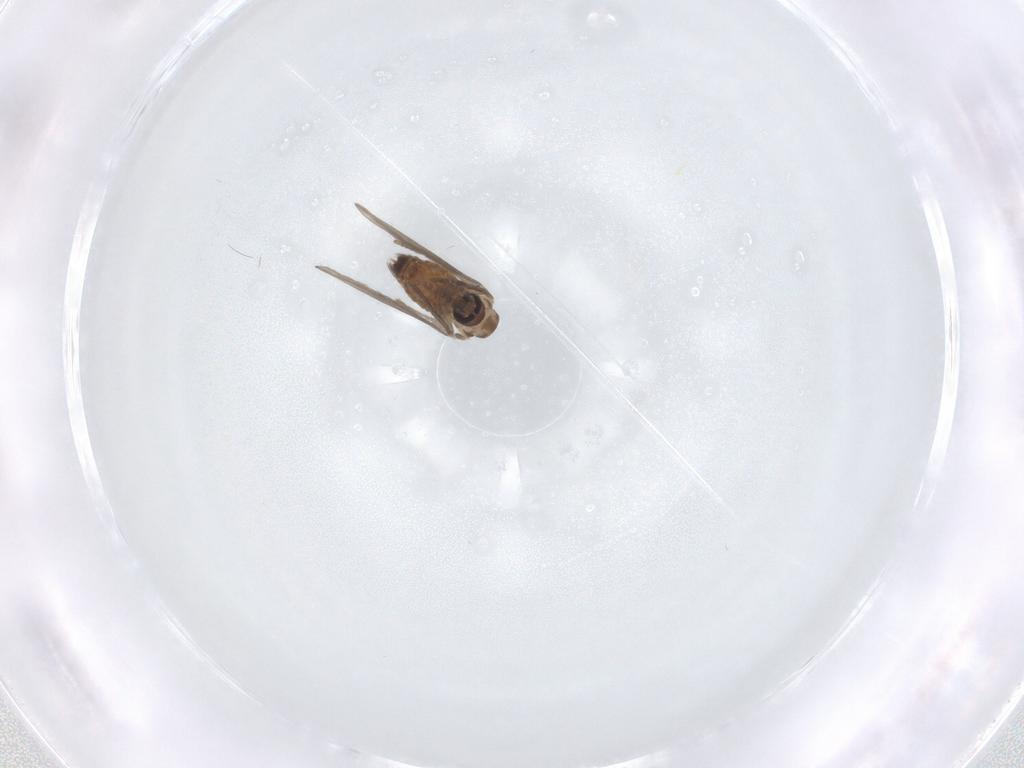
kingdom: Animalia
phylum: Arthropoda
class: Insecta
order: Diptera
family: Psychodidae
